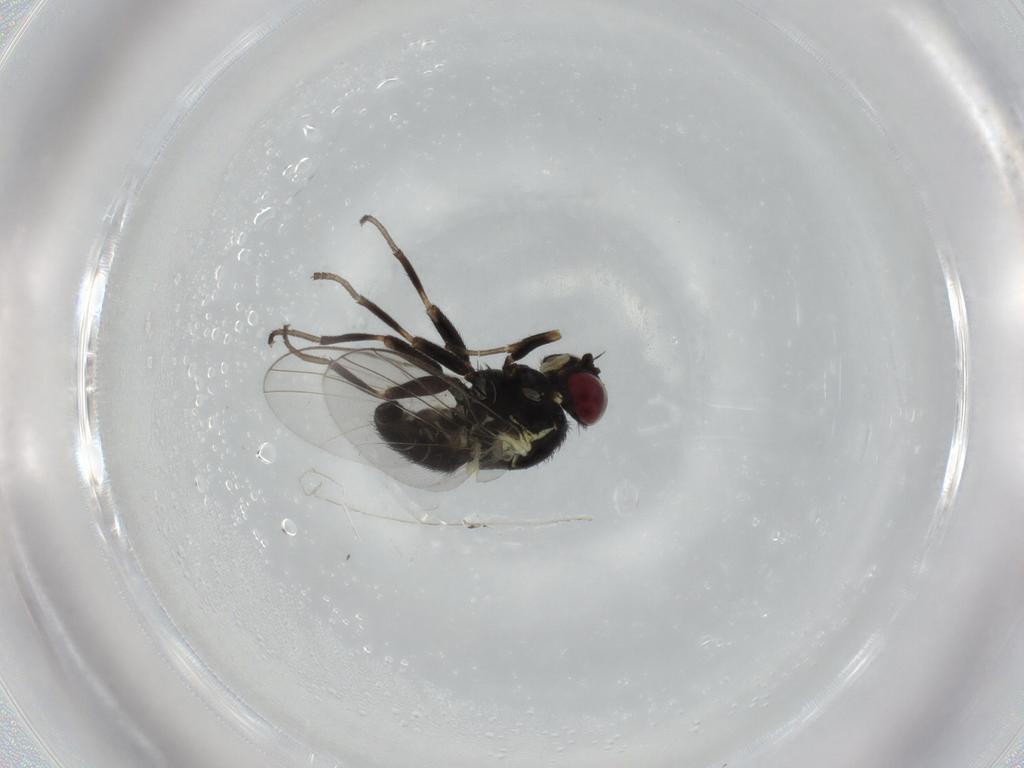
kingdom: Animalia
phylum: Arthropoda
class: Insecta
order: Diptera
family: Agromyzidae
